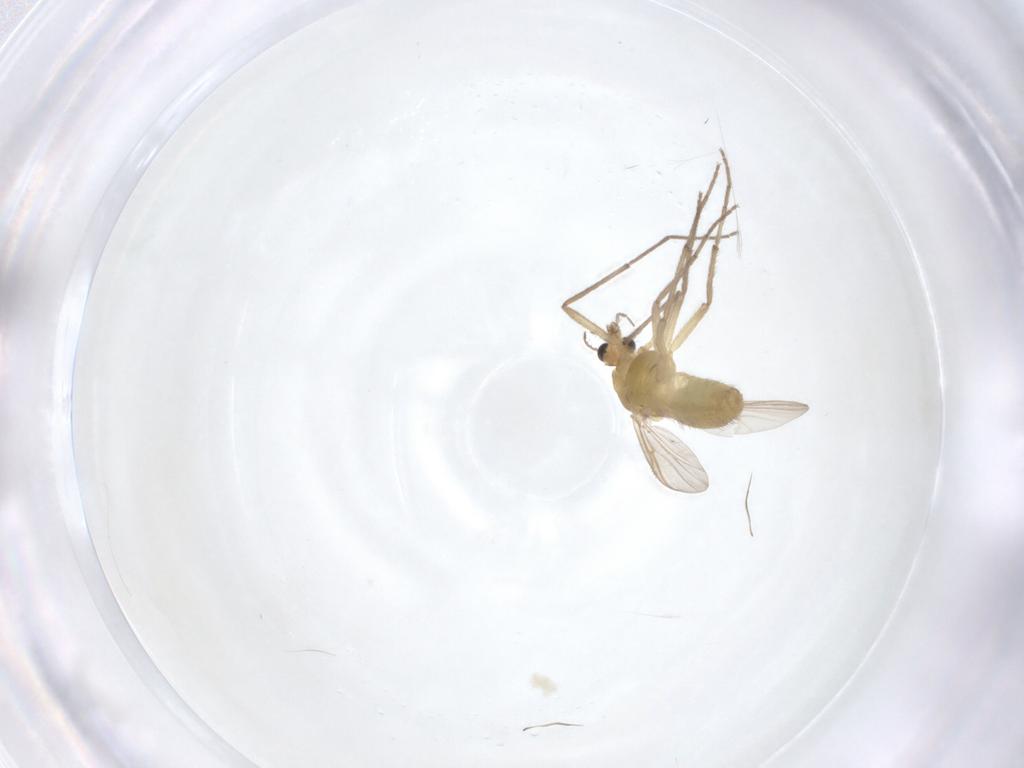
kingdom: Animalia
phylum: Arthropoda
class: Insecta
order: Diptera
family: Chironomidae
